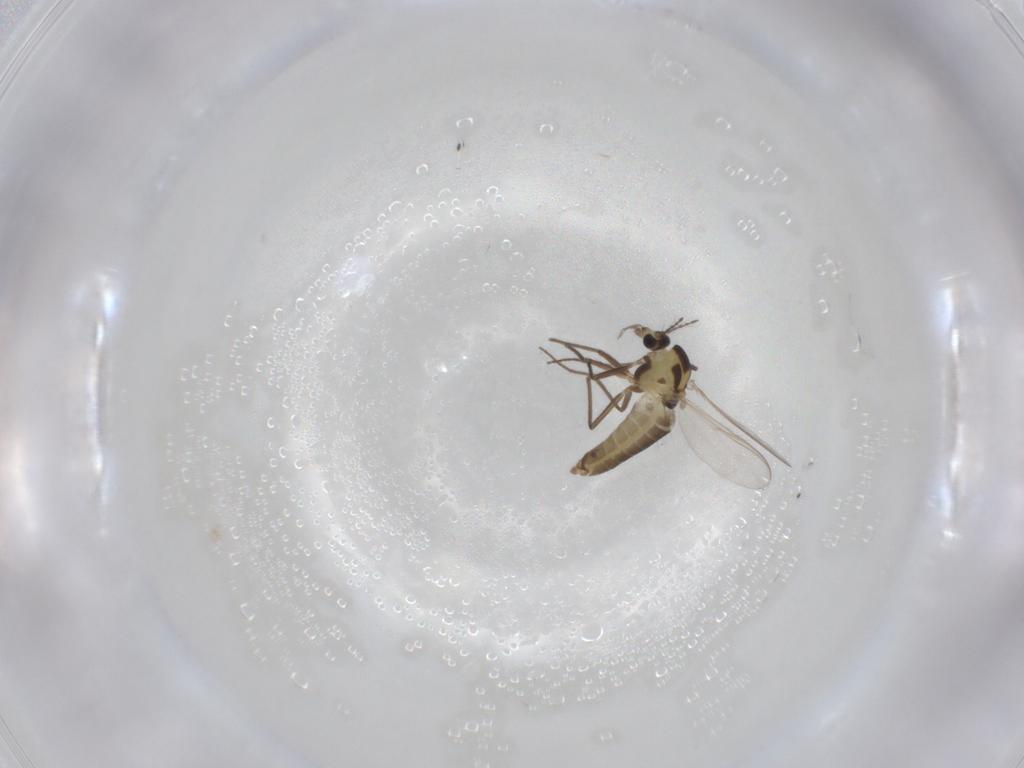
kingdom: Animalia
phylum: Arthropoda
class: Insecta
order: Diptera
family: Chironomidae
